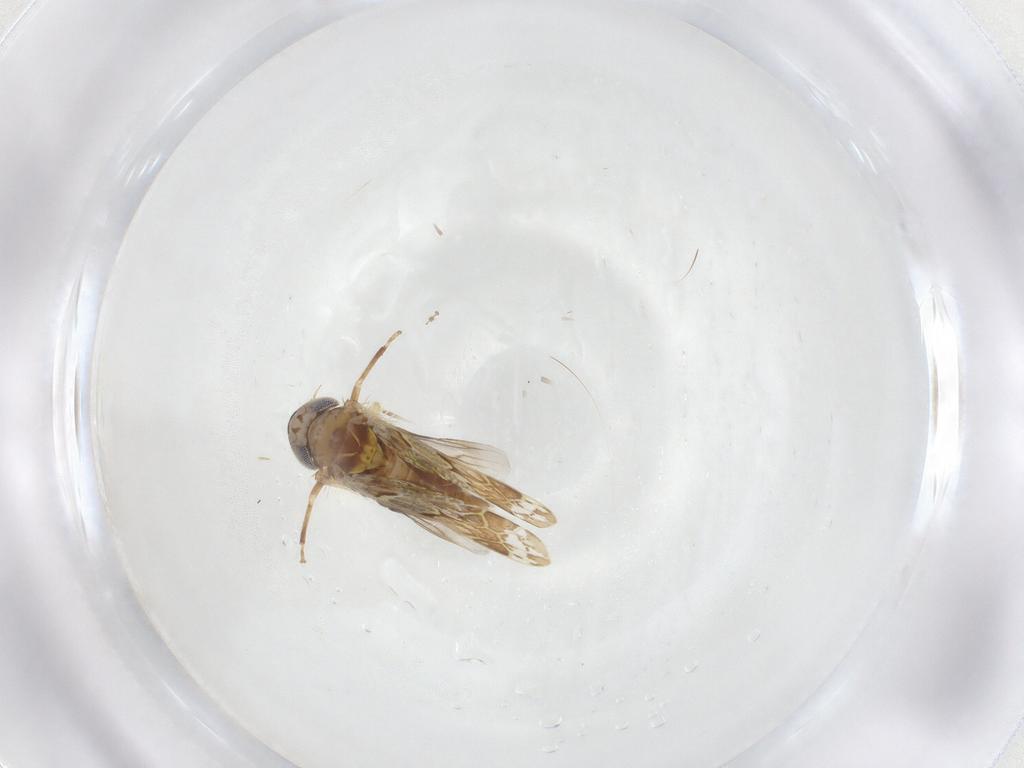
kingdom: Animalia
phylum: Arthropoda
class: Insecta
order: Hemiptera
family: Cicadellidae
